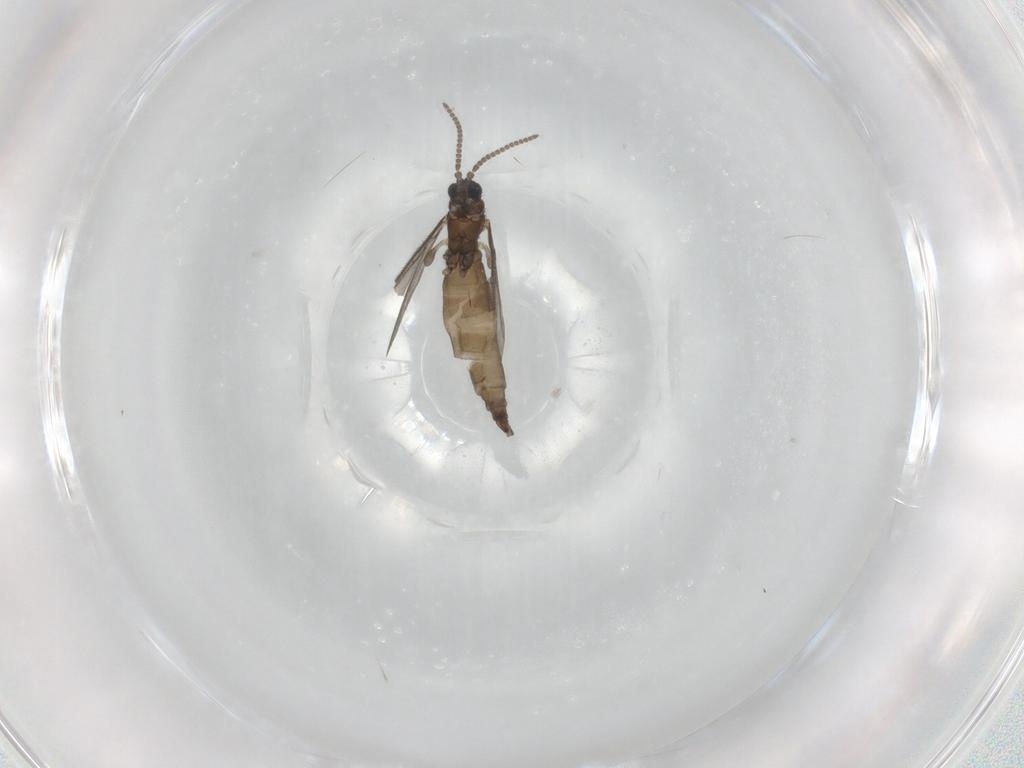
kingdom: Animalia
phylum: Arthropoda
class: Insecta
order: Diptera
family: Sciaridae
